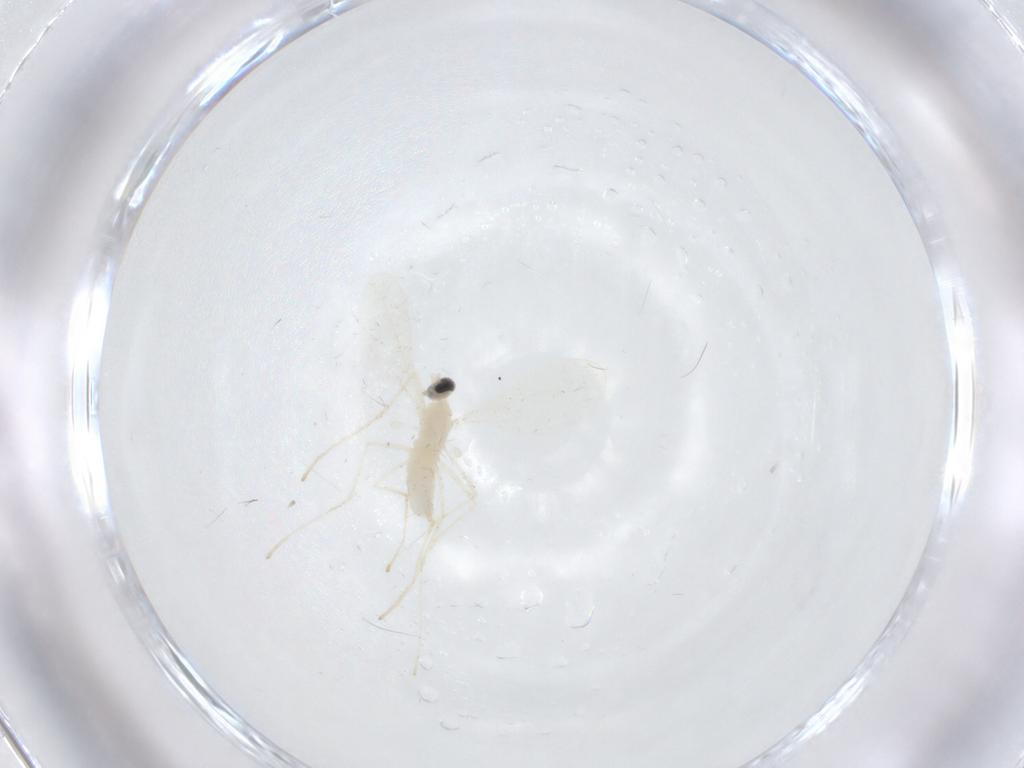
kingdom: Animalia
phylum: Arthropoda
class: Insecta
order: Diptera
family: Cecidomyiidae
